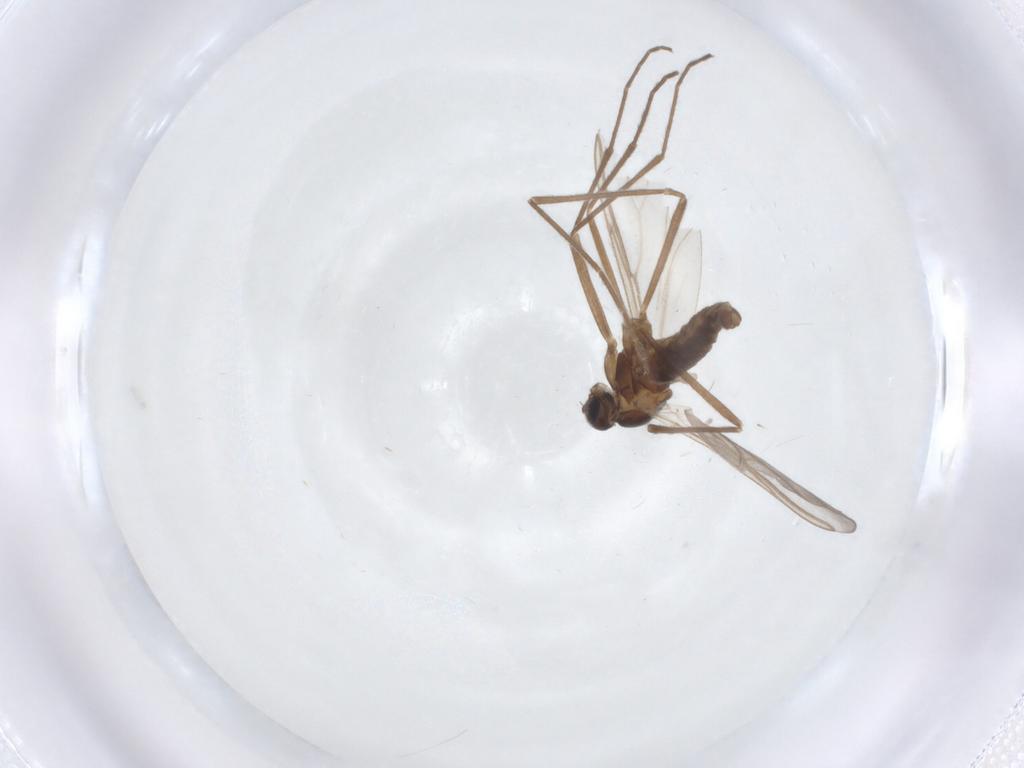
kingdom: Animalia
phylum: Arthropoda
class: Insecta
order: Diptera
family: Cecidomyiidae
